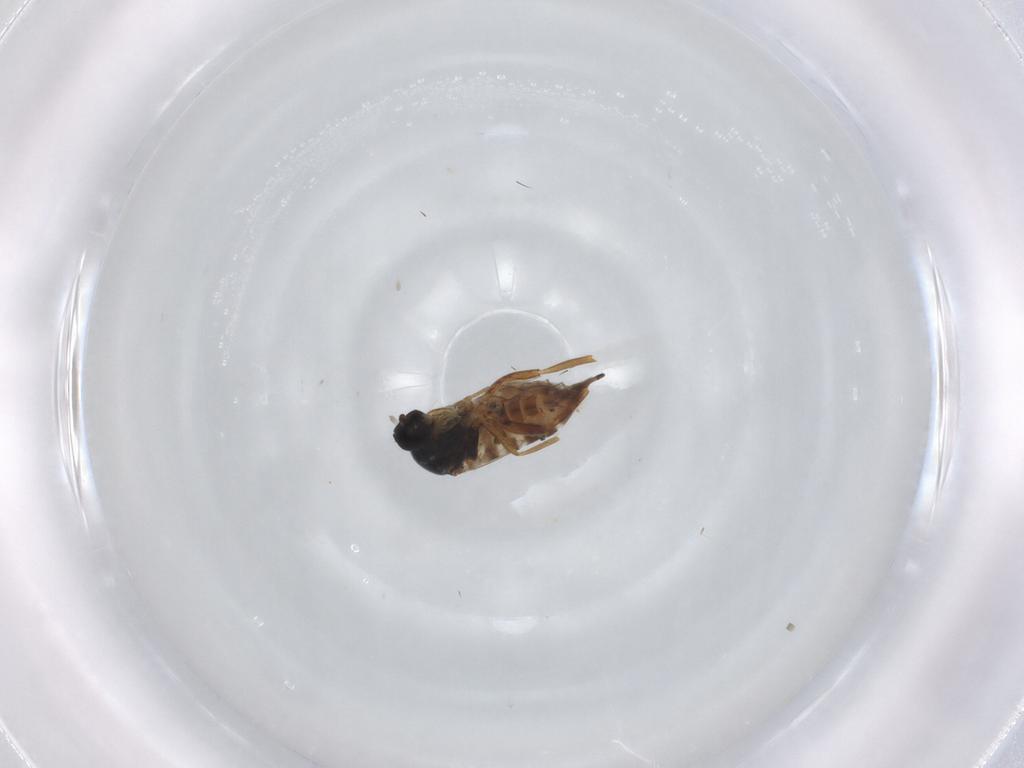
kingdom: Animalia
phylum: Arthropoda
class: Insecta
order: Diptera
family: Hybotidae
